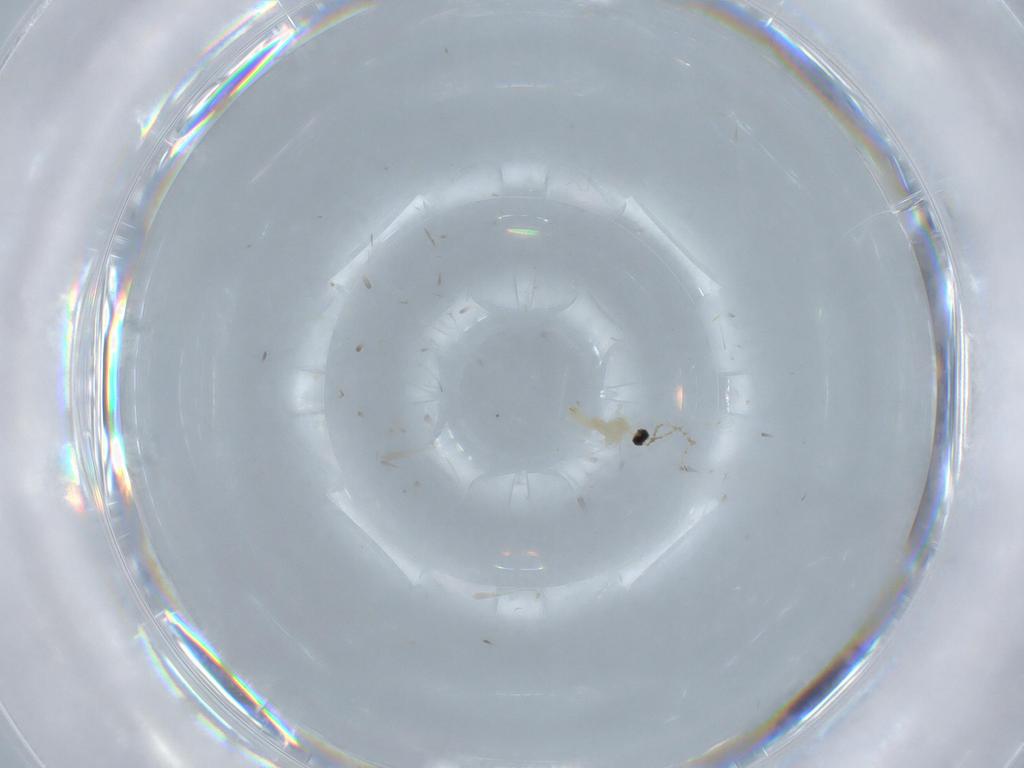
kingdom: Animalia
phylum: Arthropoda
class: Insecta
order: Diptera
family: Cecidomyiidae
